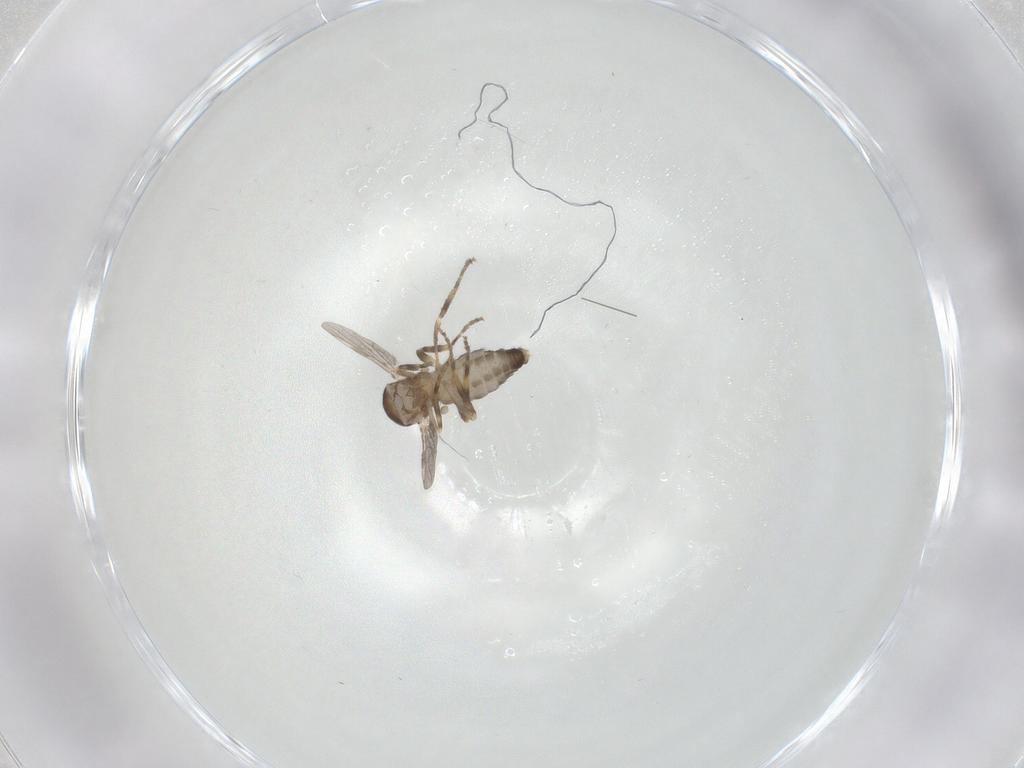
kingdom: Animalia
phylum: Arthropoda
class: Insecta
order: Diptera
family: Ceratopogonidae
